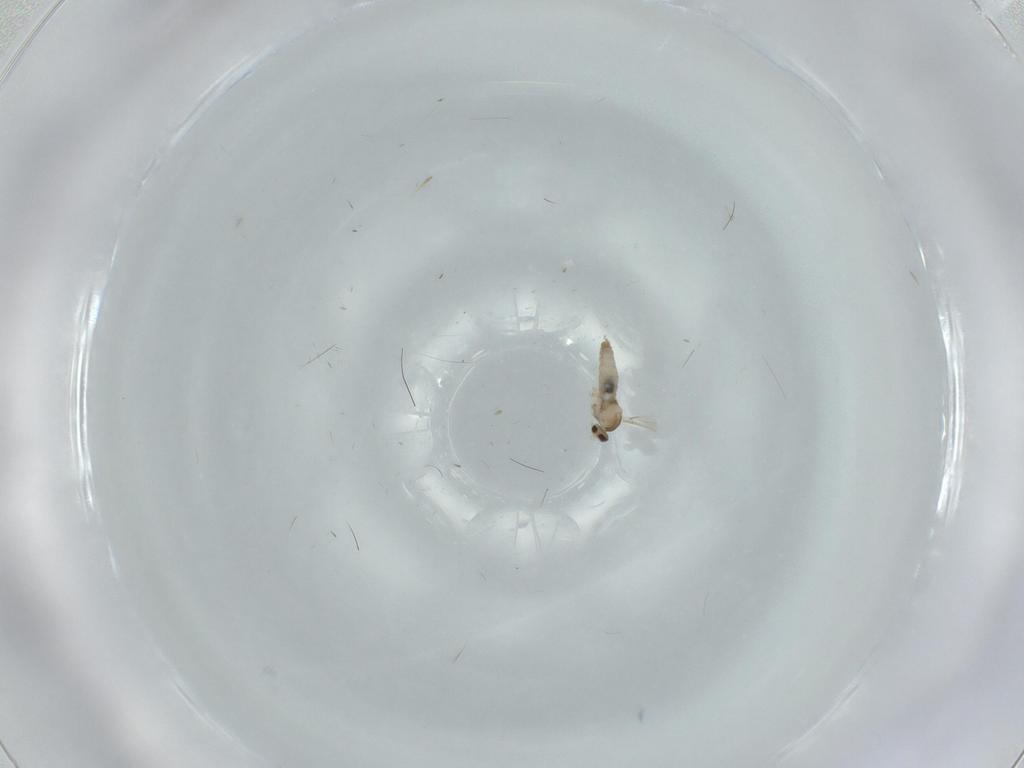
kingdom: Animalia
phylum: Arthropoda
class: Insecta
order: Diptera
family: Cecidomyiidae
